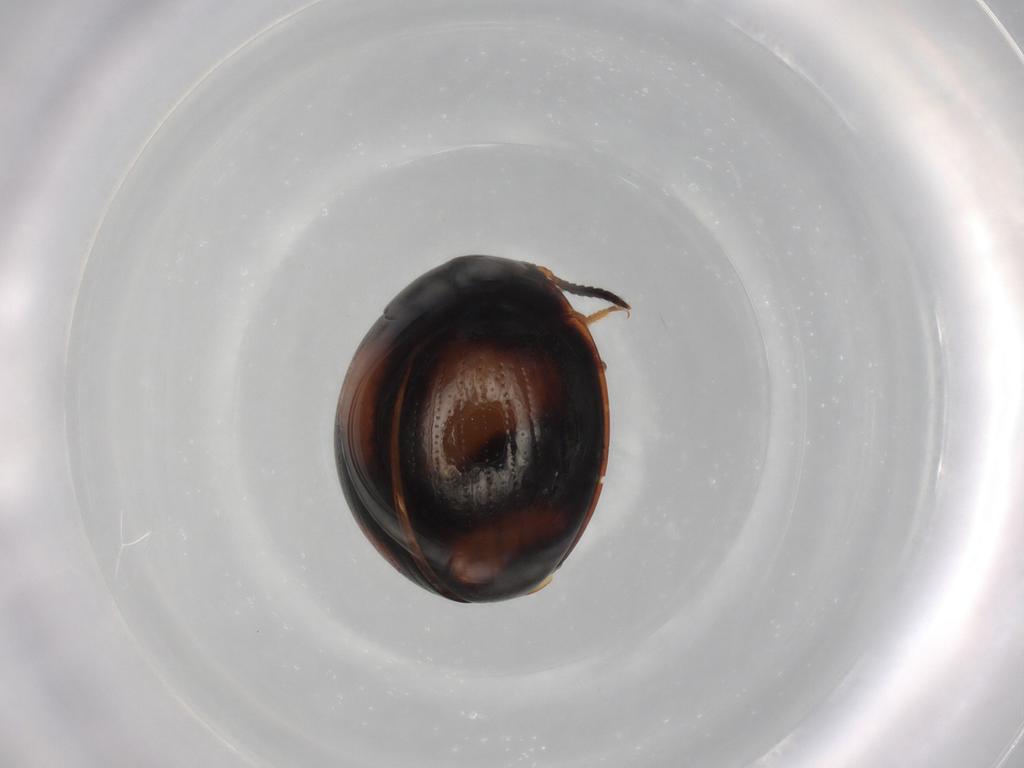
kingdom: Animalia
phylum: Arthropoda
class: Insecta
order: Coleoptera
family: Tenebrionidae
